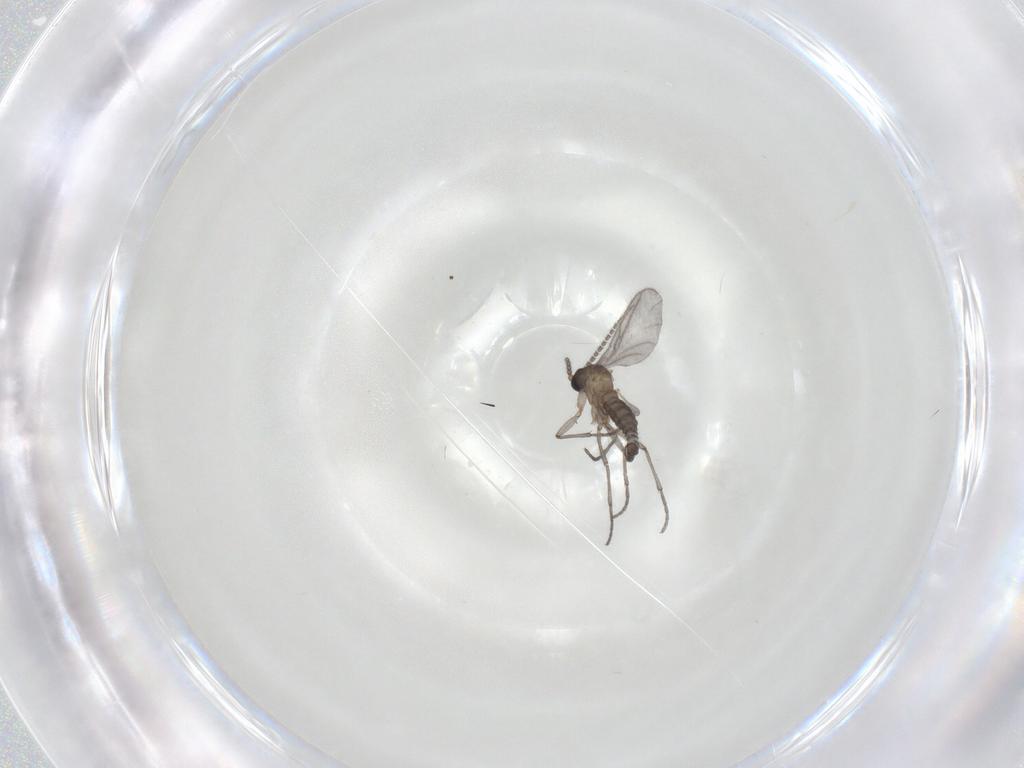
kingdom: Animalia
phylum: Arthropoda
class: Insecta
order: Diptera
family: Sciaridae
